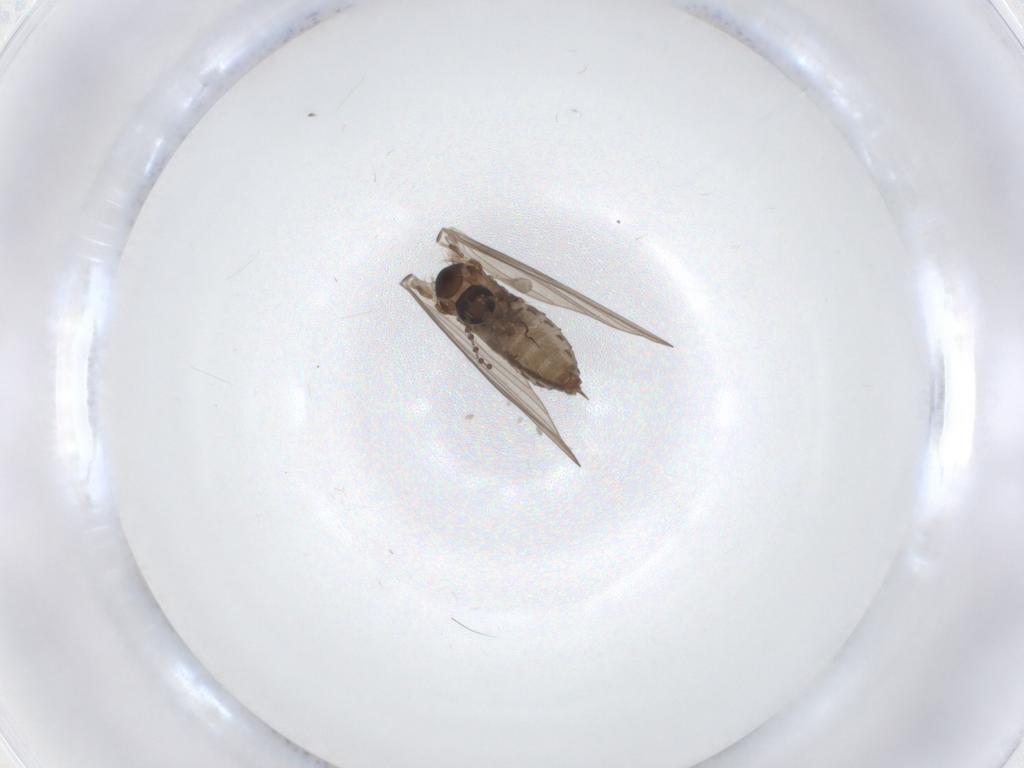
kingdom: Animalia
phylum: Arthropoda
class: Insecta
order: Diptera
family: Psychodidae
